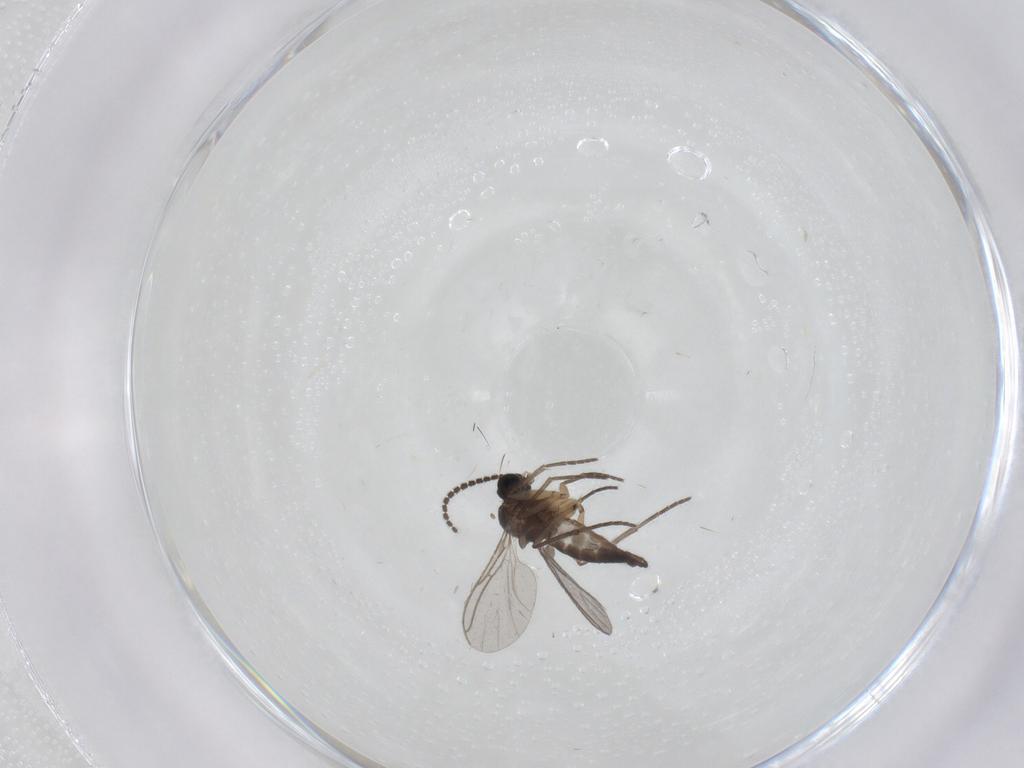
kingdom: Animalia
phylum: Arthropoda
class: Insecta
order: Diptera
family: Sciaridae
